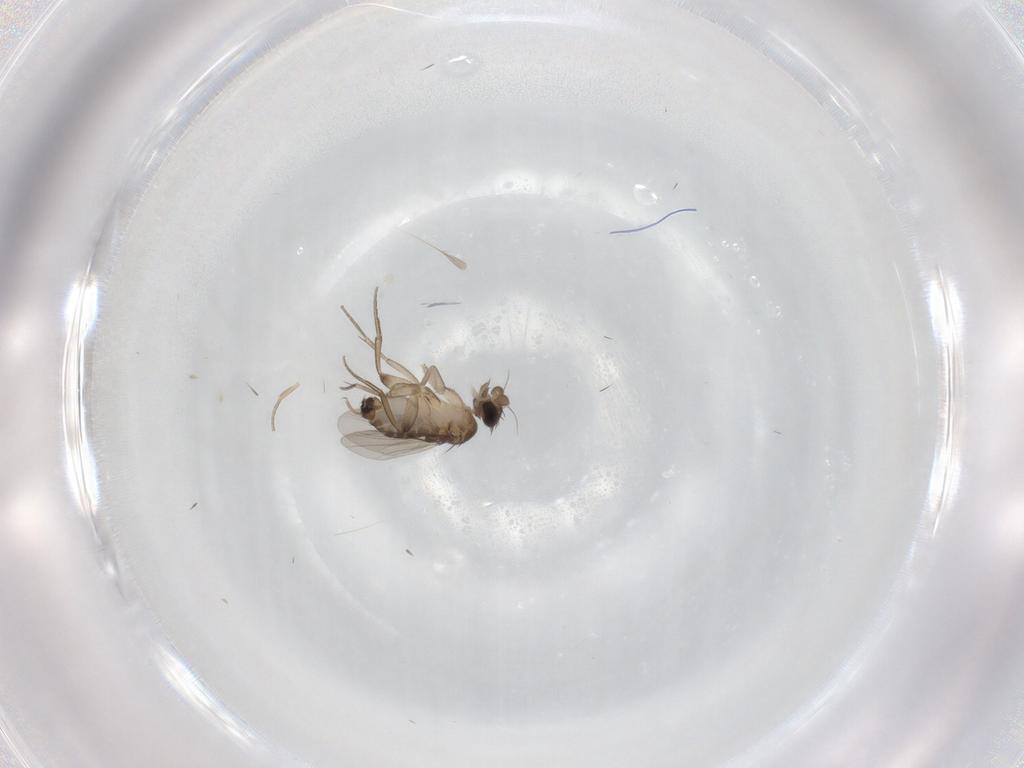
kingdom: Animalia
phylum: Arthropoda
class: Insecta
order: Diptera
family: Phoridae
